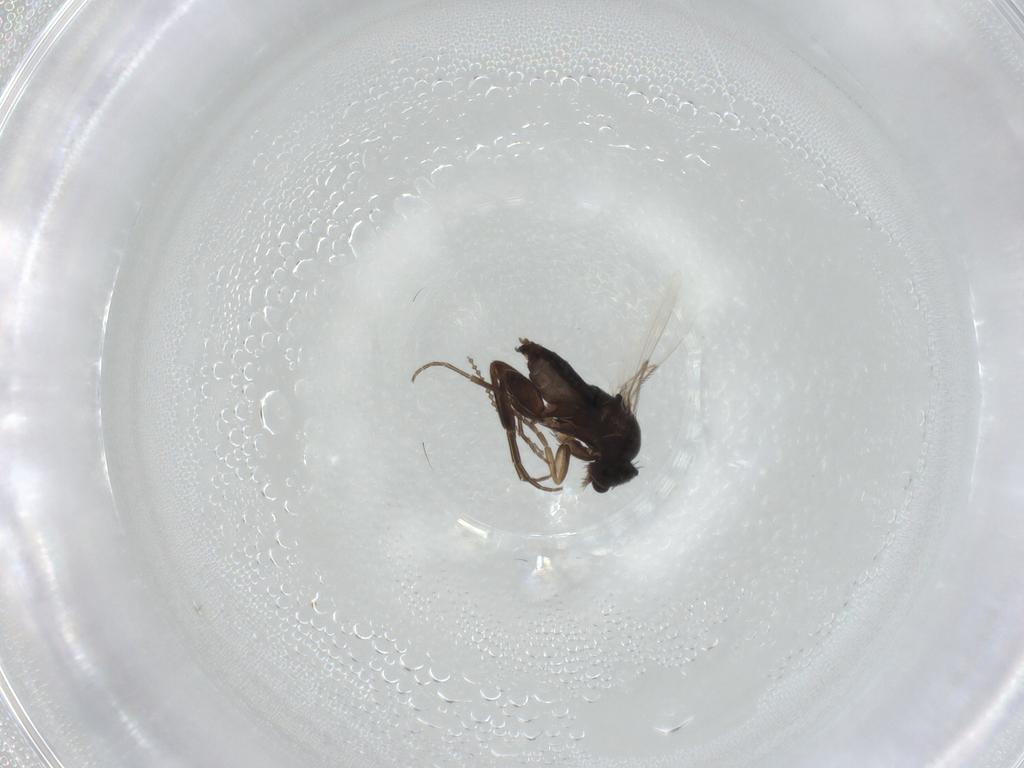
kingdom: Animalia
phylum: Arthropoda
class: Insecta
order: Diptera
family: Phoridae
